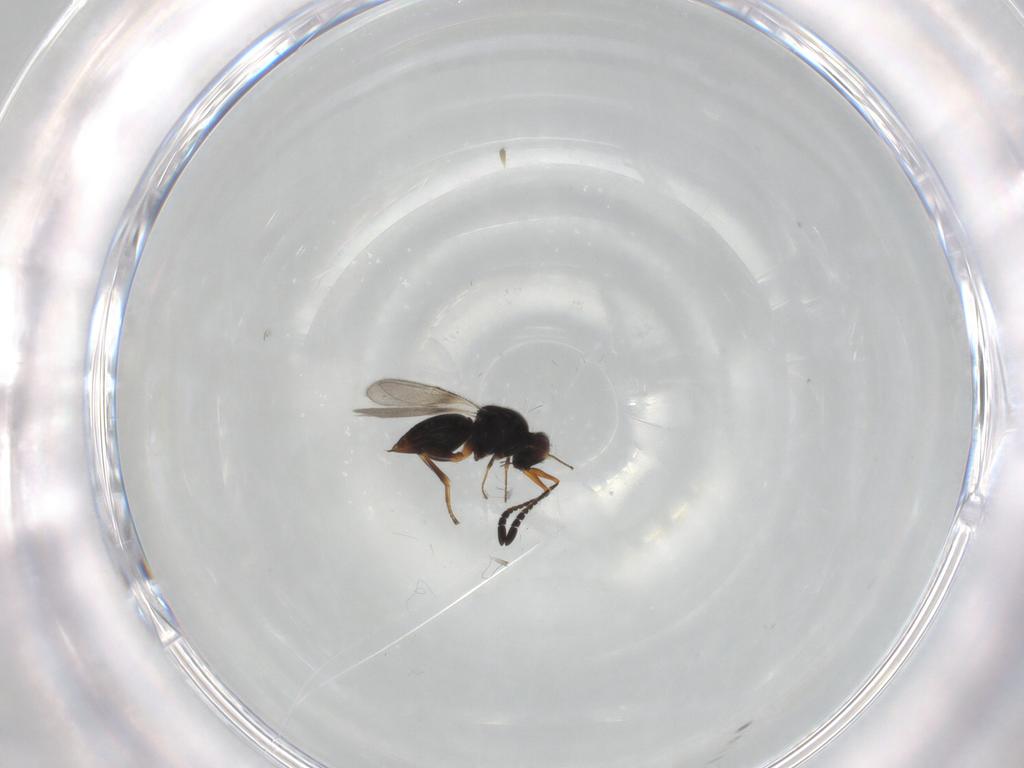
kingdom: Animalia
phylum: Arthropoda
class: Insecta
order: Hymenoptera
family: Ceraphronidae
